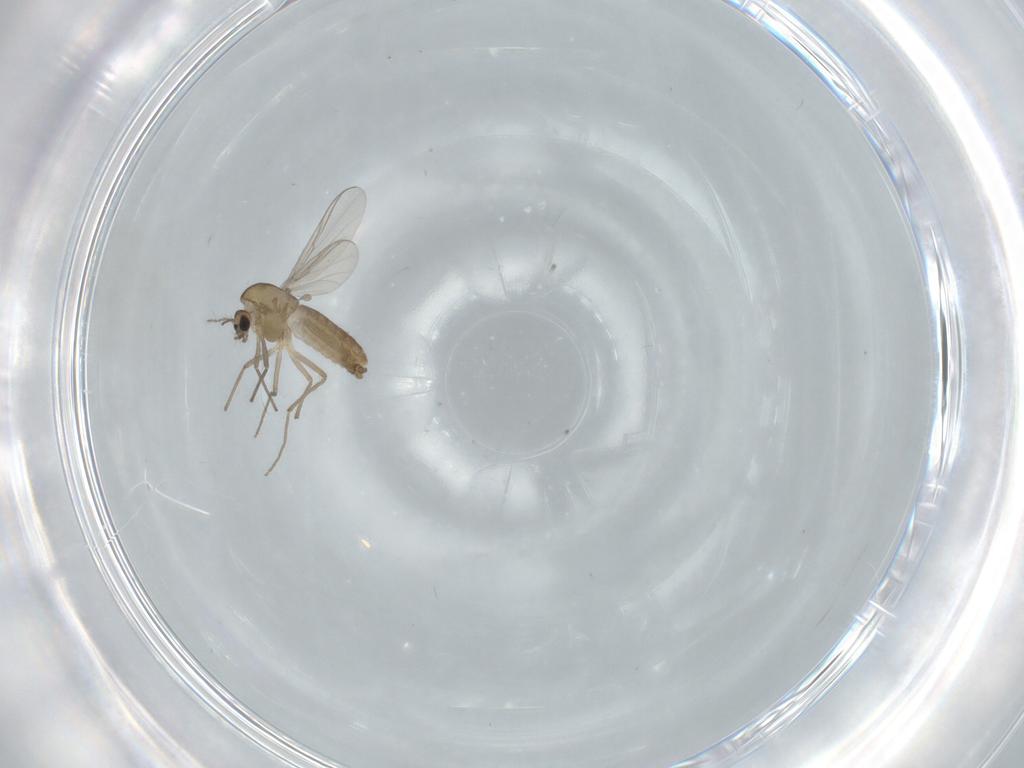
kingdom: Animalia
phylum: Arthropoda
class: Insecta
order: Diptera
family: Chironomidae
